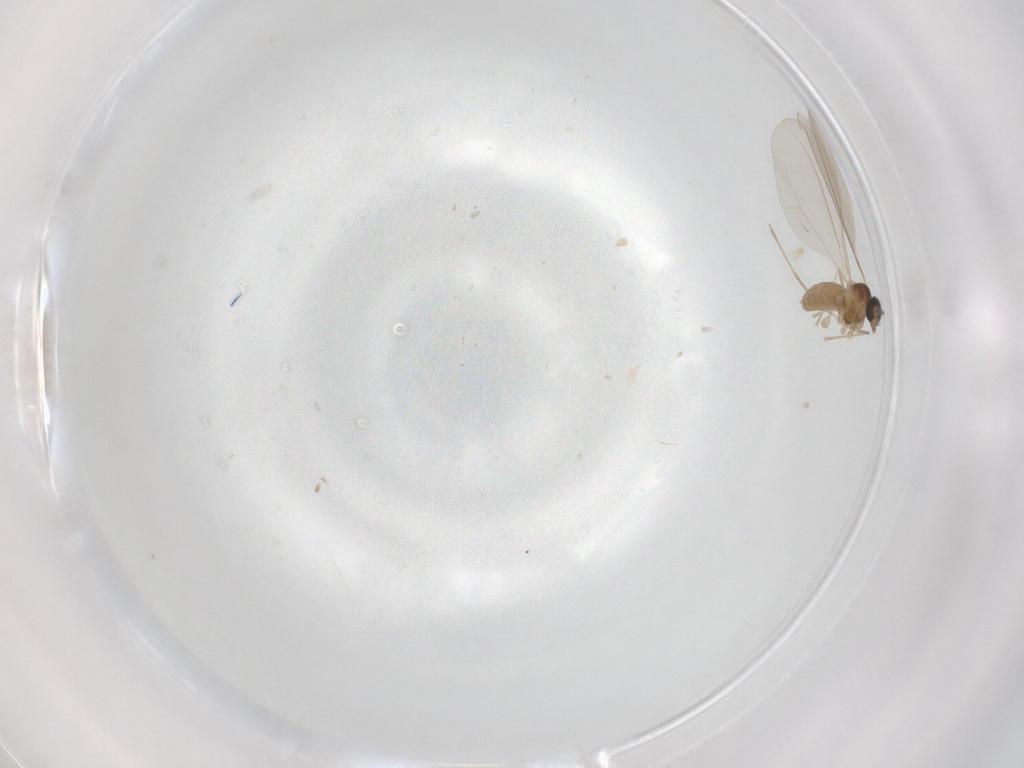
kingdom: Animalia
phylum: Arthropoda
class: Insecta
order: Diptera
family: Cecidomyiidae
